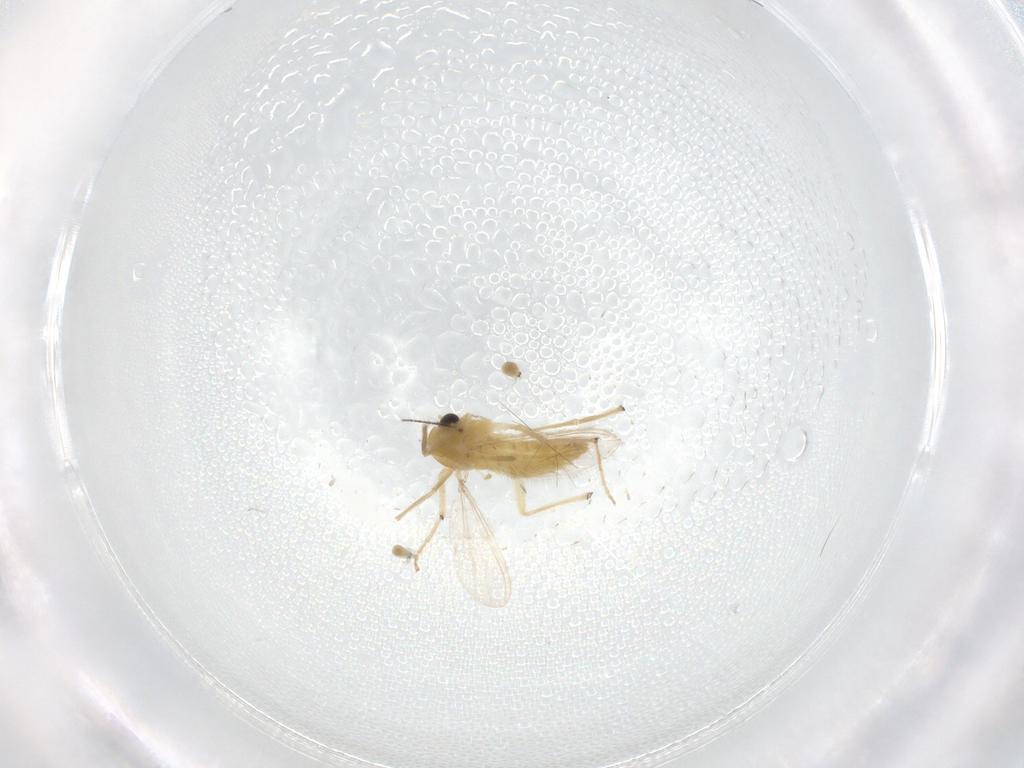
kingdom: Animalia
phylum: Arthropoda
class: Insecta
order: Diptera
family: Chironomidae
